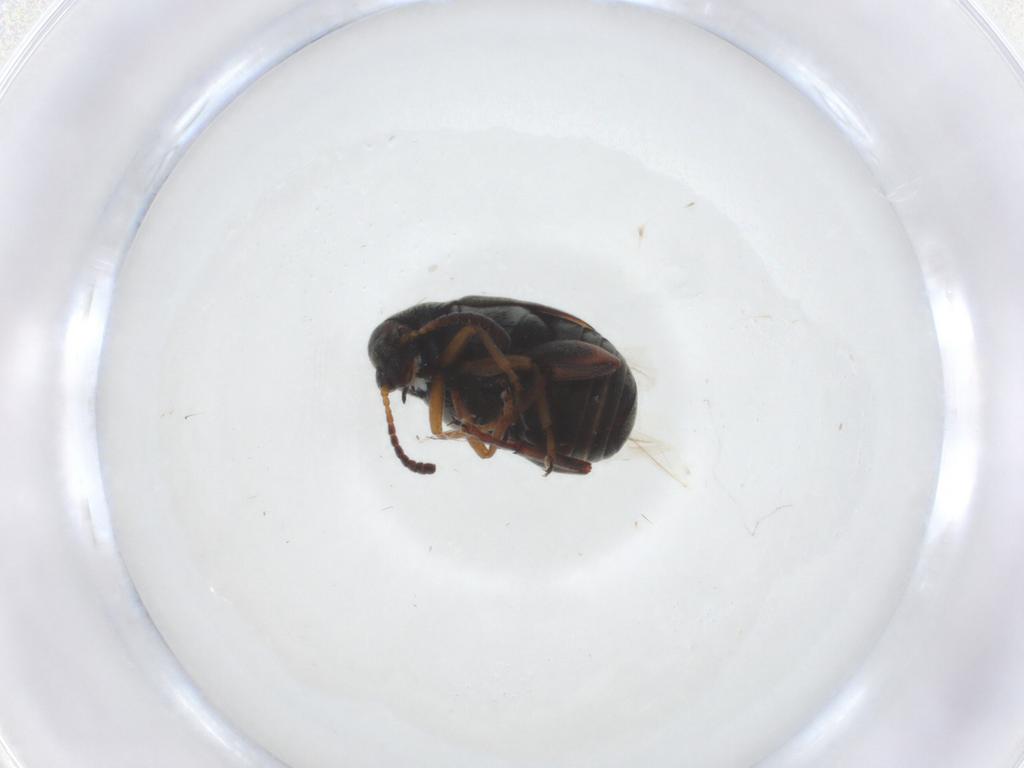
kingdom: Animalia
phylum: Arthropoda
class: Insecta
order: Coleoptera
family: Chrysomelidae
